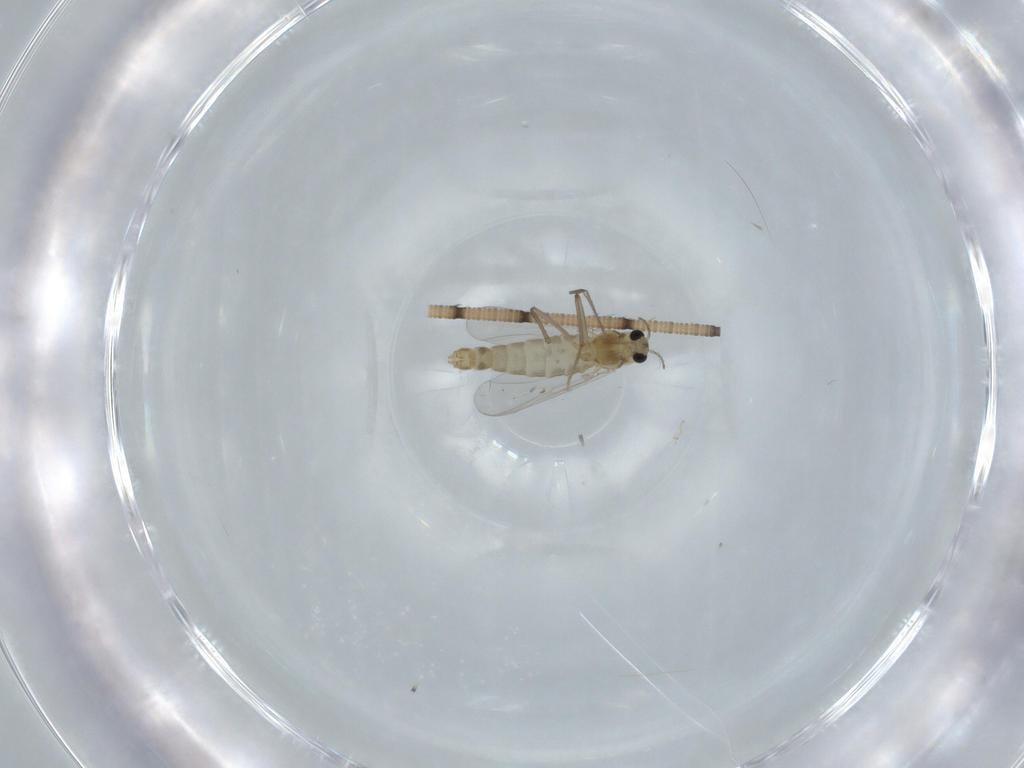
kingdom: Animalia
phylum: Arthropoda
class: Insecta
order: Diptera
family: Chironomidae
